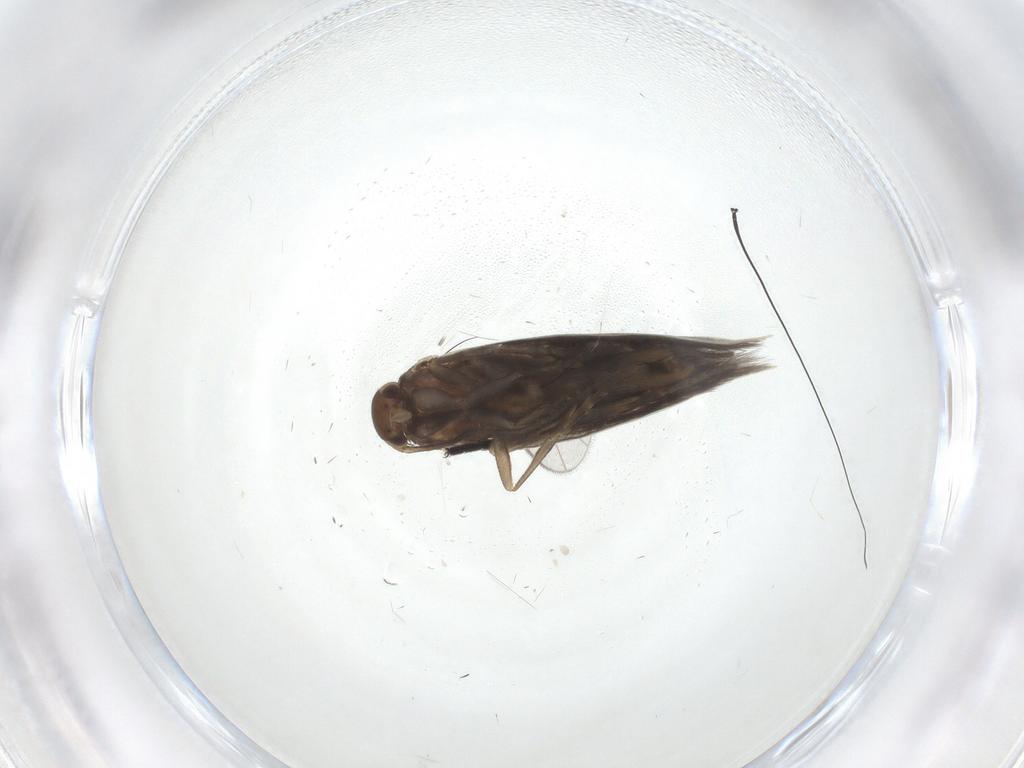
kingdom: Animalia
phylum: Arthropoda
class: Insecta
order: Lepidoptera
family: Elachistidae
